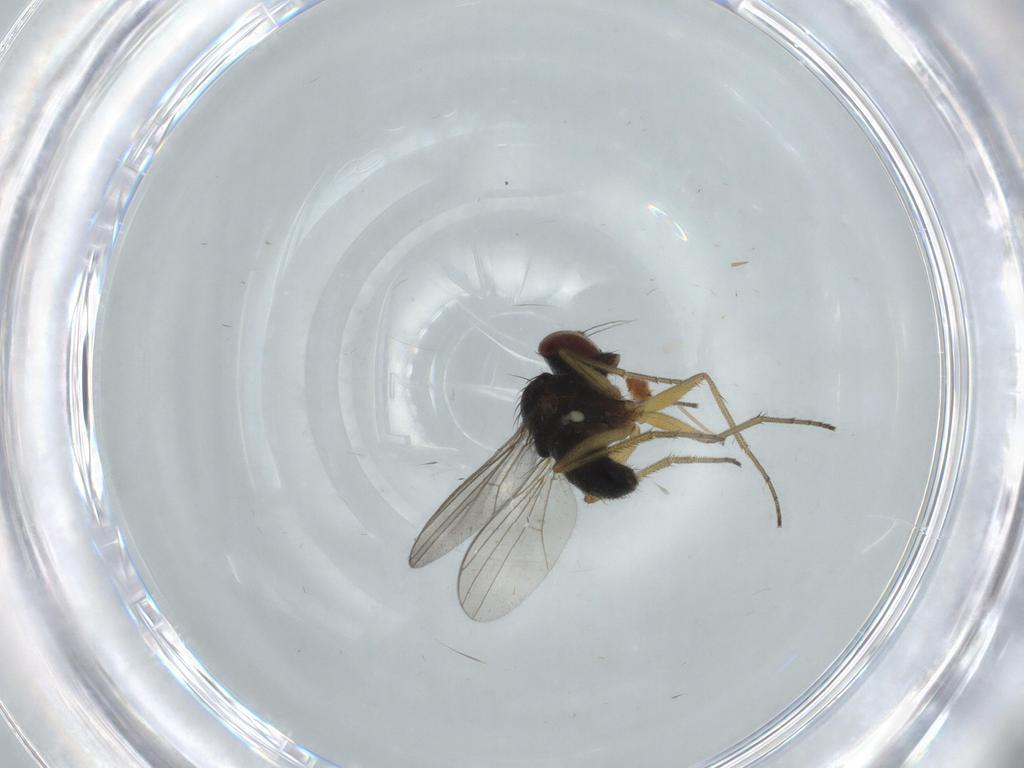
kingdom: Animalia
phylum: Arthropoda
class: Insecta
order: Diptera
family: Dolichopodidae
